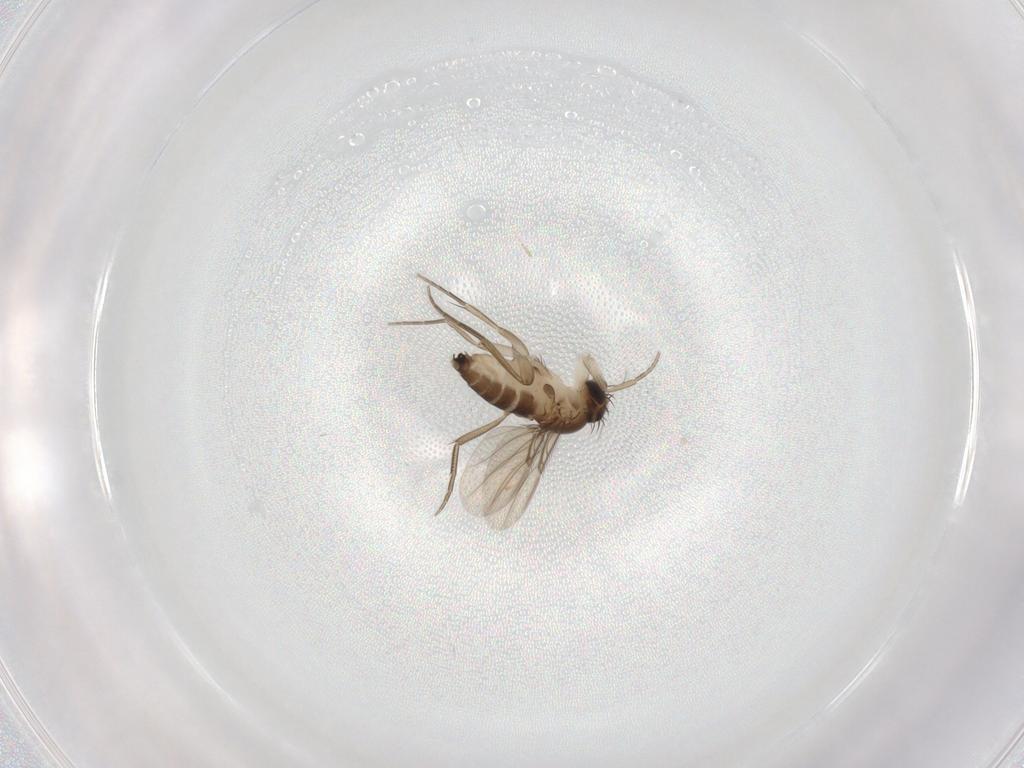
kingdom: Animalia
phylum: Arthropoda
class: Insecta
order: Diptera
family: Phoridae
